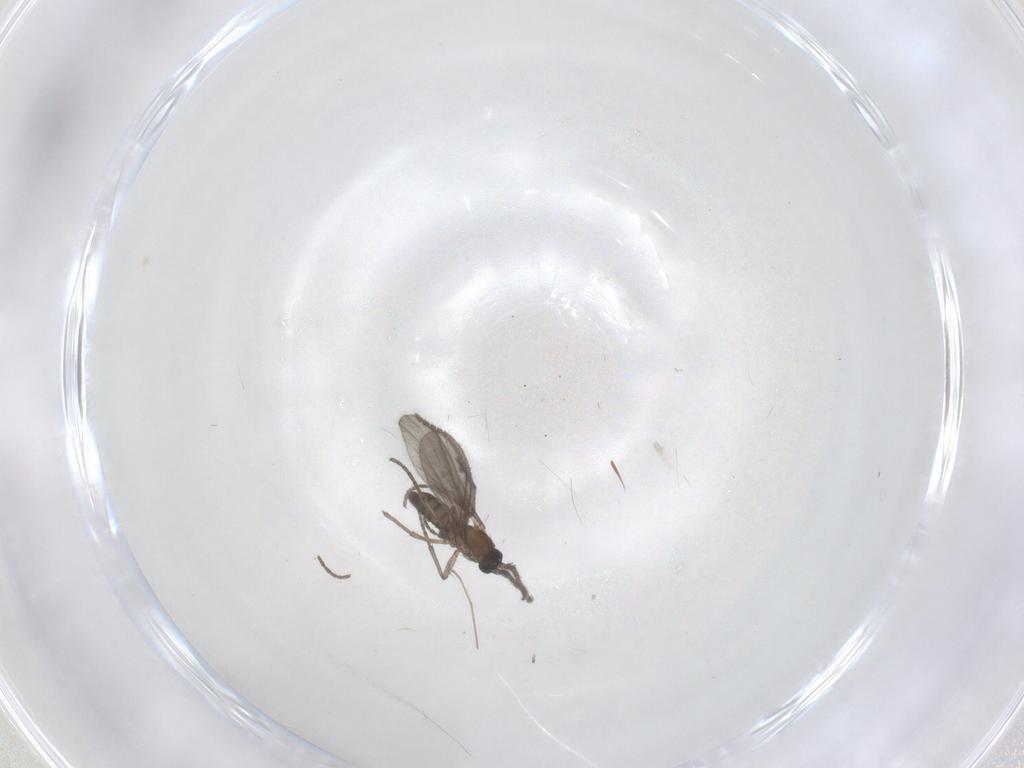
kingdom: Animalia
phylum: Arthropoda
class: Insecta
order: Diptera
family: Sciaridae
